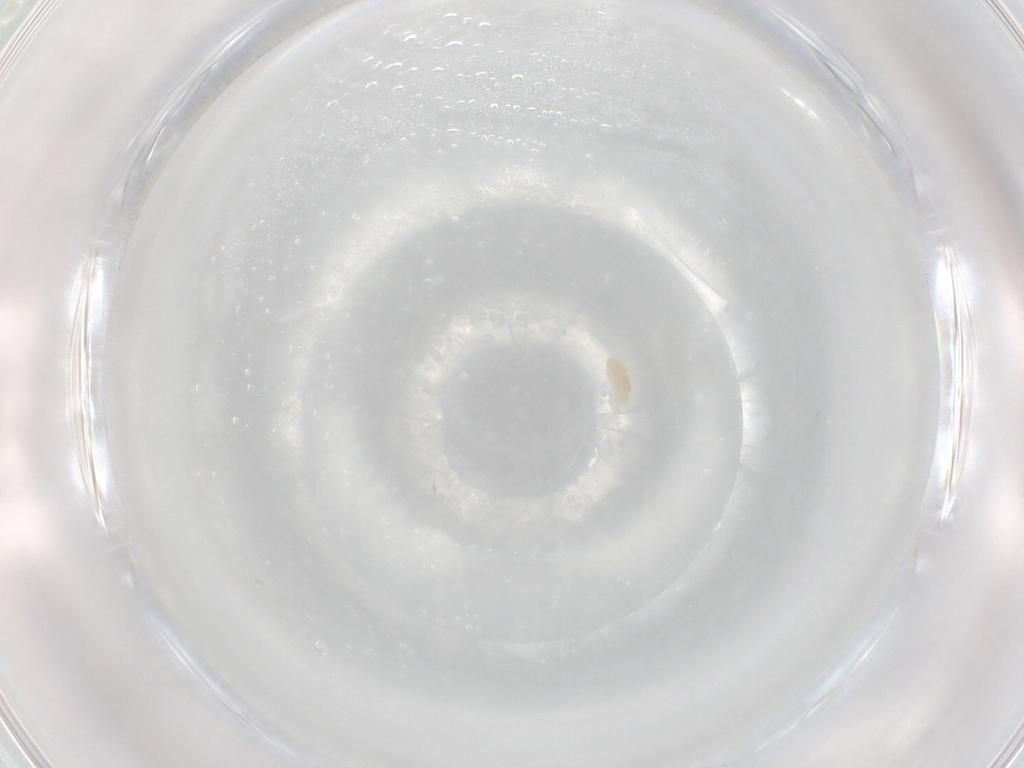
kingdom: Animalia
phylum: Arthropoda
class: Arachnida
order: Trombidiformes
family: Eupodidae
